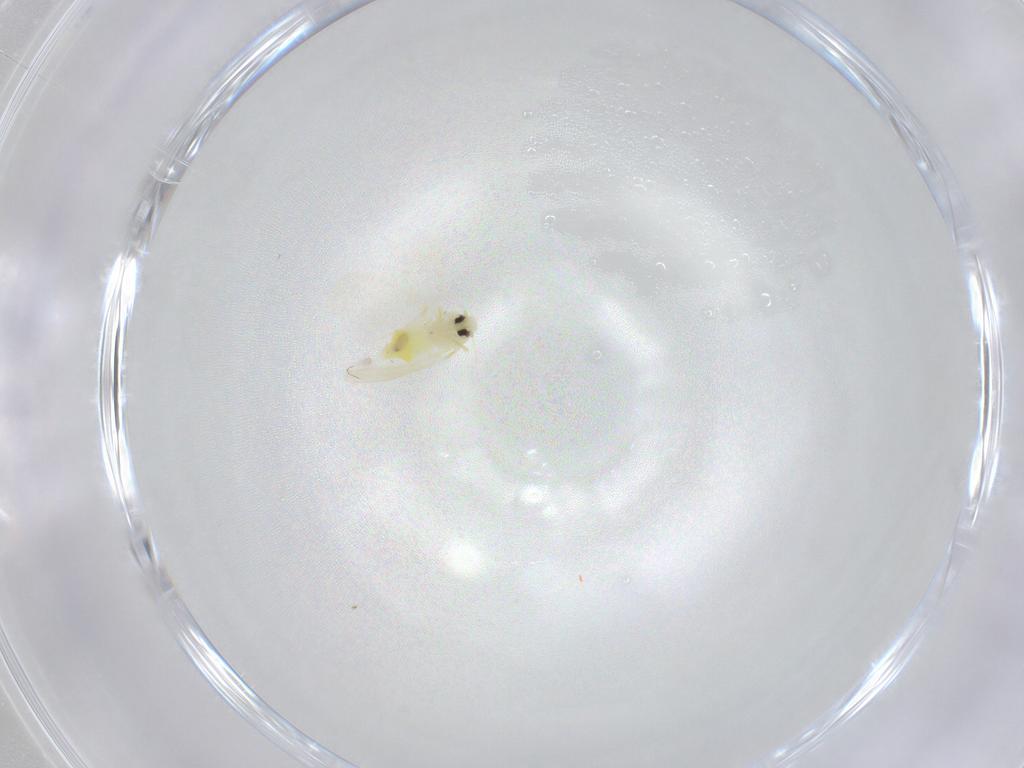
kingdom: Animalia
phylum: Arthropoda
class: Insecta
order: Hemiptera
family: Aleyrodidae
